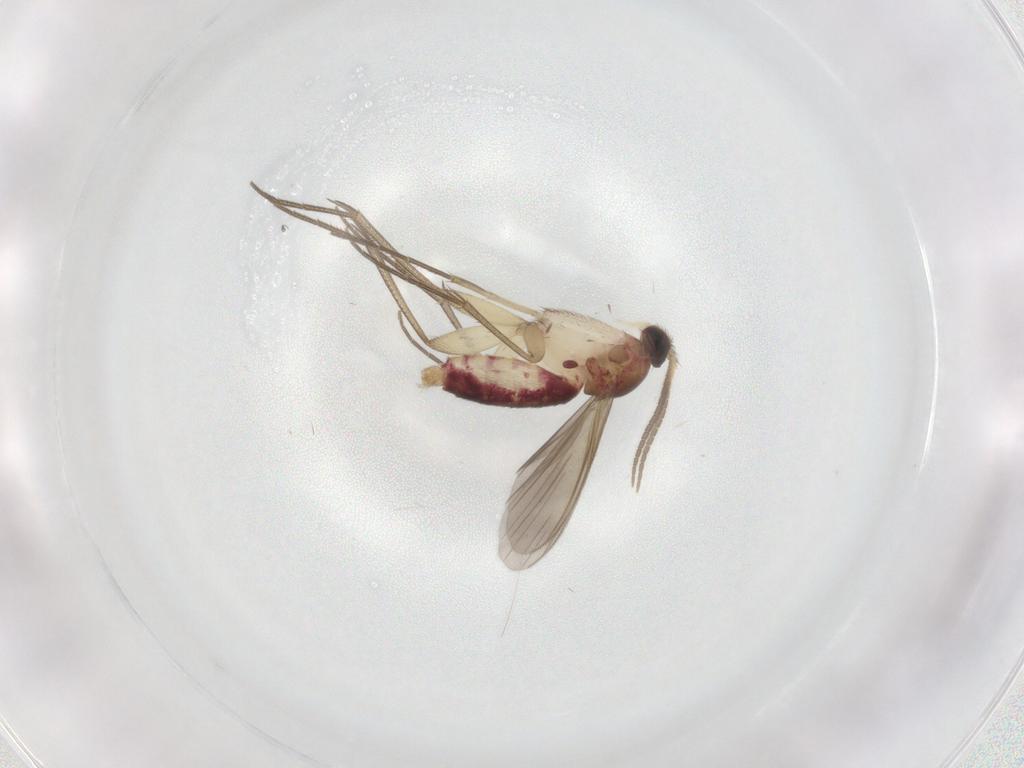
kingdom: Animalia
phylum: Arthropoda
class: Insecta
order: Diptera
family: Mycetophilidae
